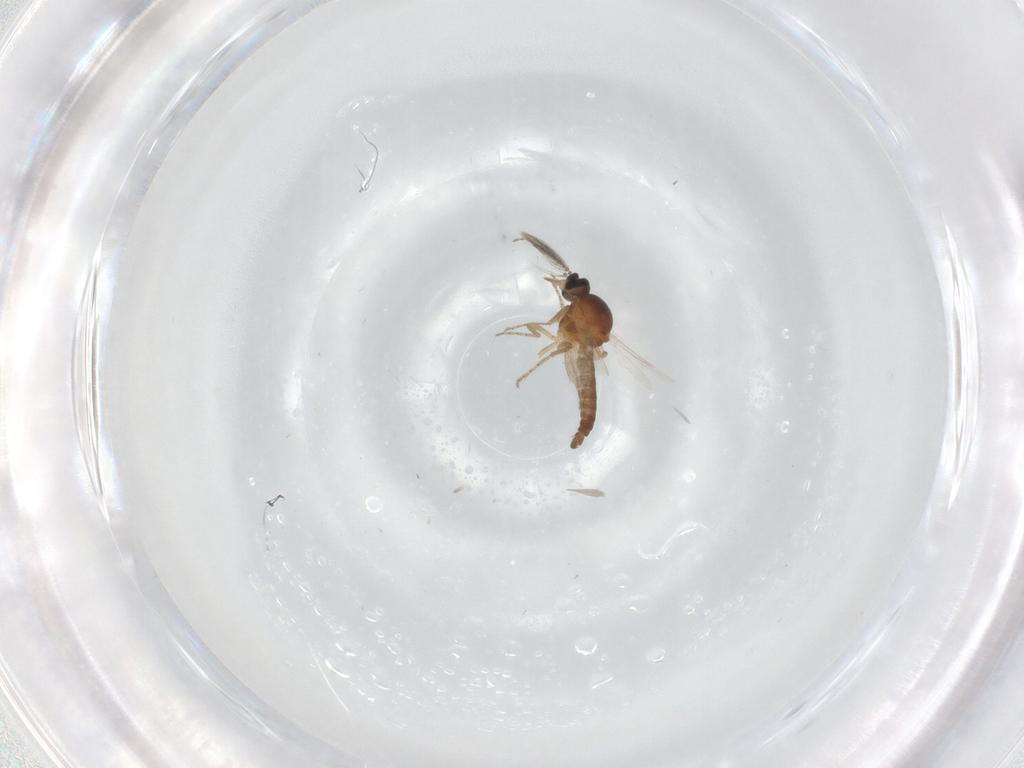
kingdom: Animalia
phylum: Arthropoda
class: Insecta
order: Diptera
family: Ceratopogonidae
